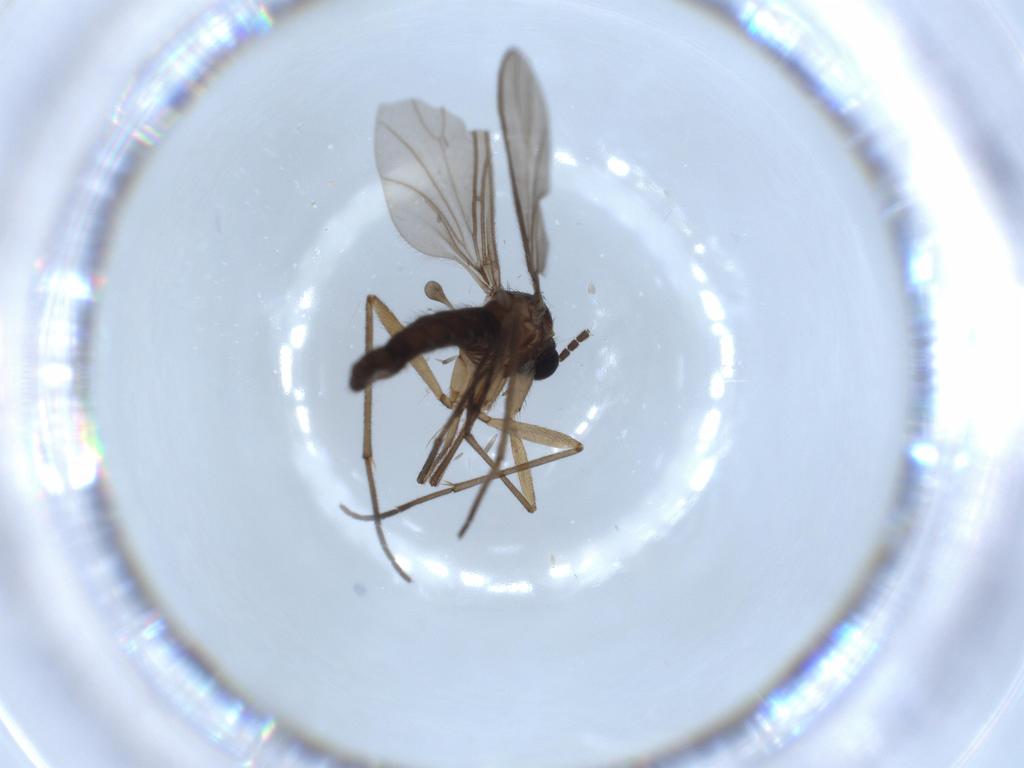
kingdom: Animalia
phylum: Arthropoda
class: Insecta
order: Diptera
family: Sciaridae
